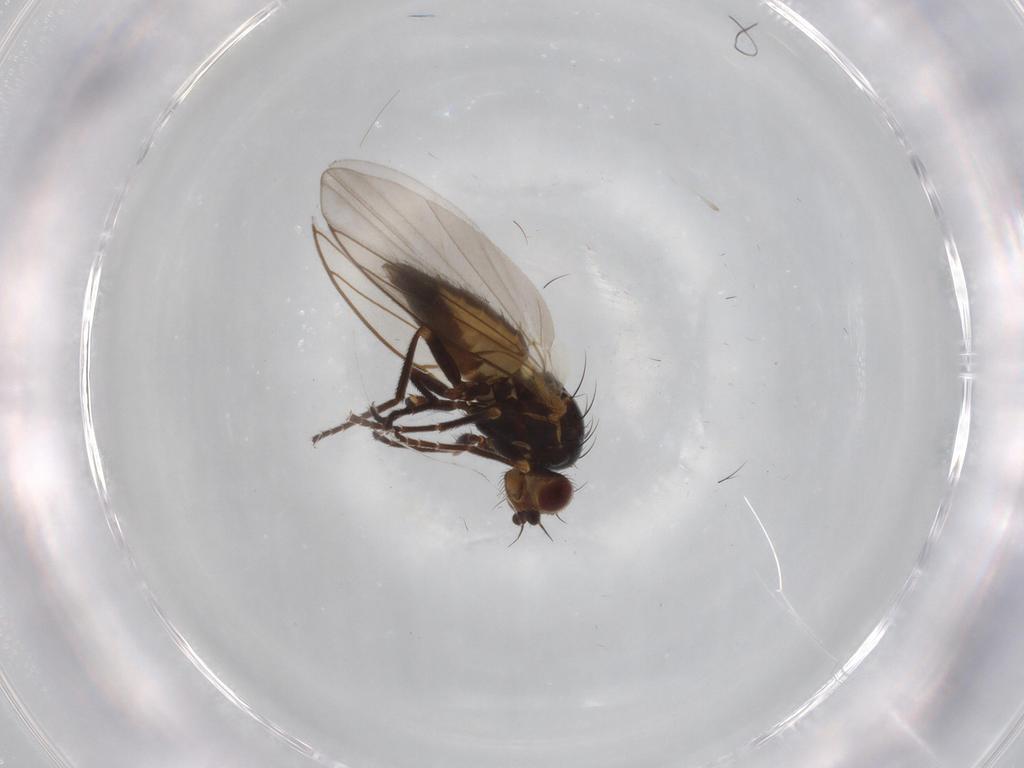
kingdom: Animalia
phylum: Arthropoda
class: Insecta
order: Diptera
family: Agromyzidae
